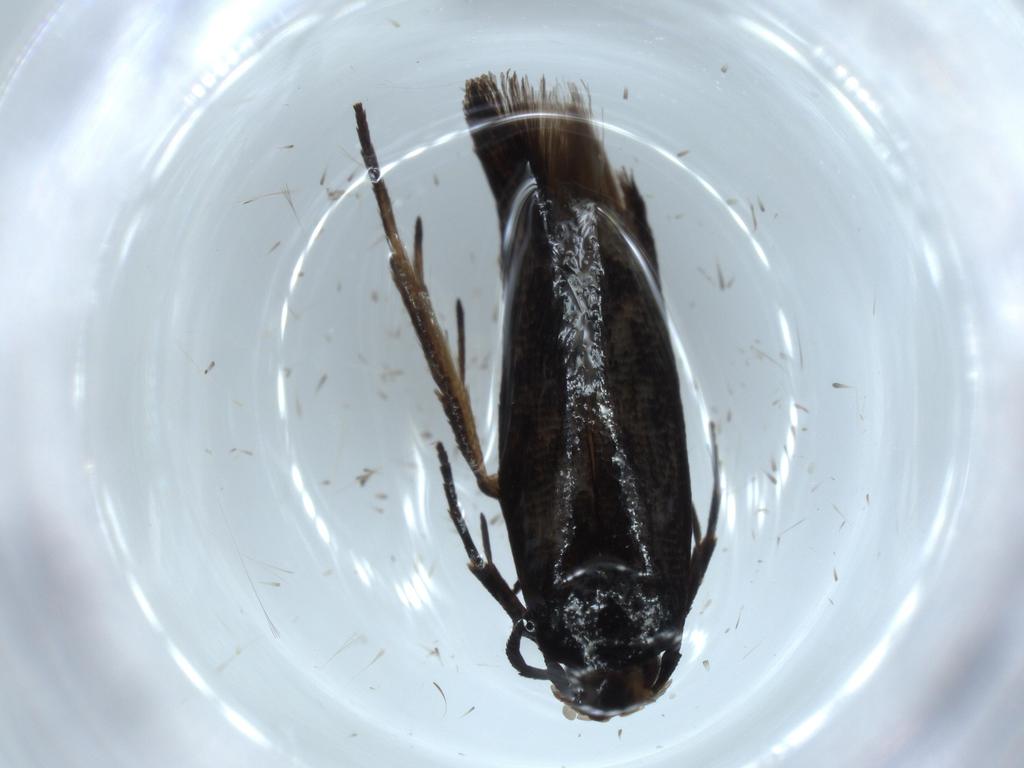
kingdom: Animalia
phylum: Arthropoda
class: Insecta
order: Lepidoptera
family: Cosmopterigidae
